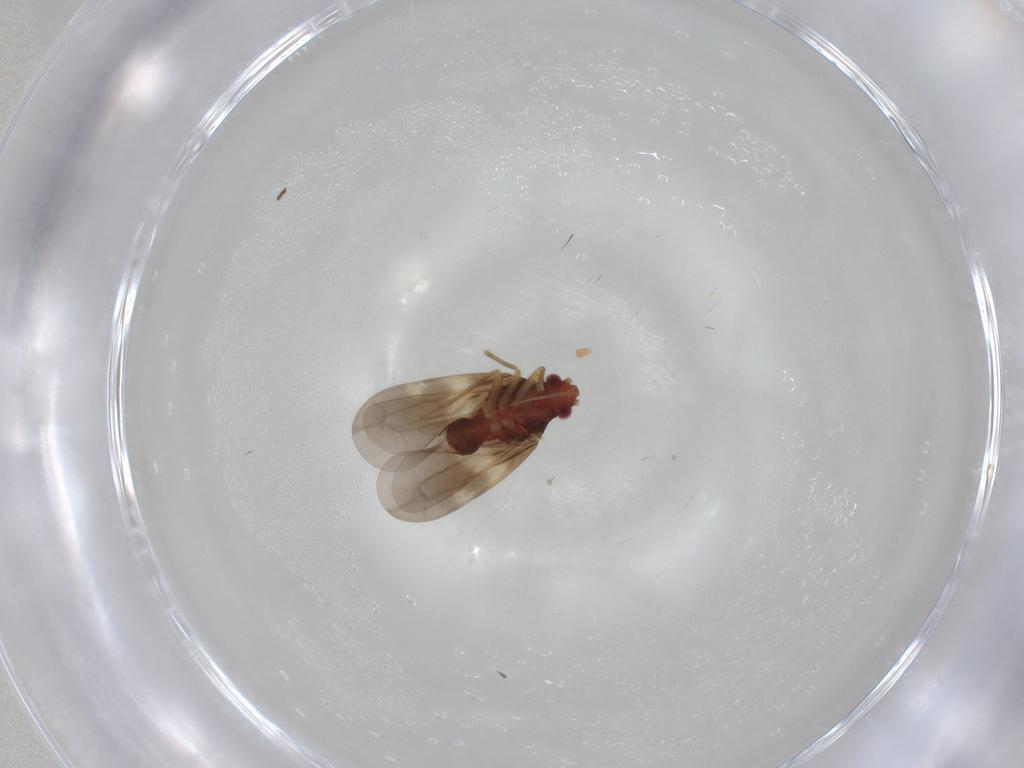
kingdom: Animalia
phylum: Arthropoda
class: Insecta
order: Hemiptera
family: Ceratocombidae
